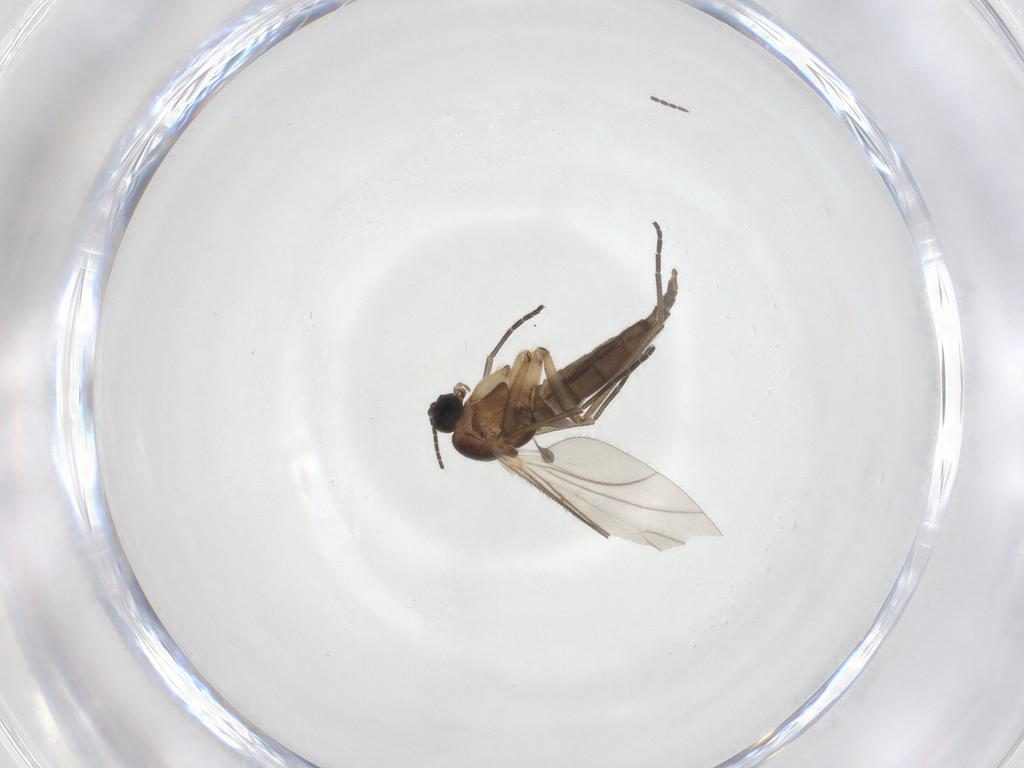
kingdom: Animalia
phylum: Arthropoda
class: Insecta
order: Diptera
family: Sciaridae
